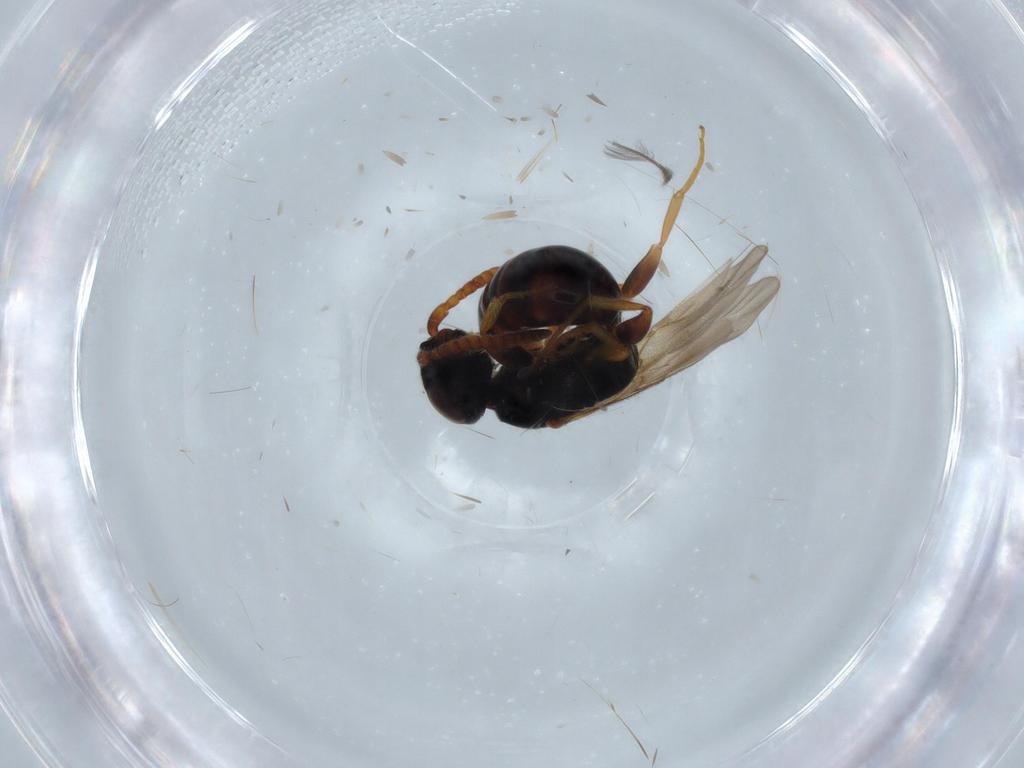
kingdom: Animalia
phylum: Arthropoda
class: Insecta
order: Hymenoptera
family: Bethylidae
